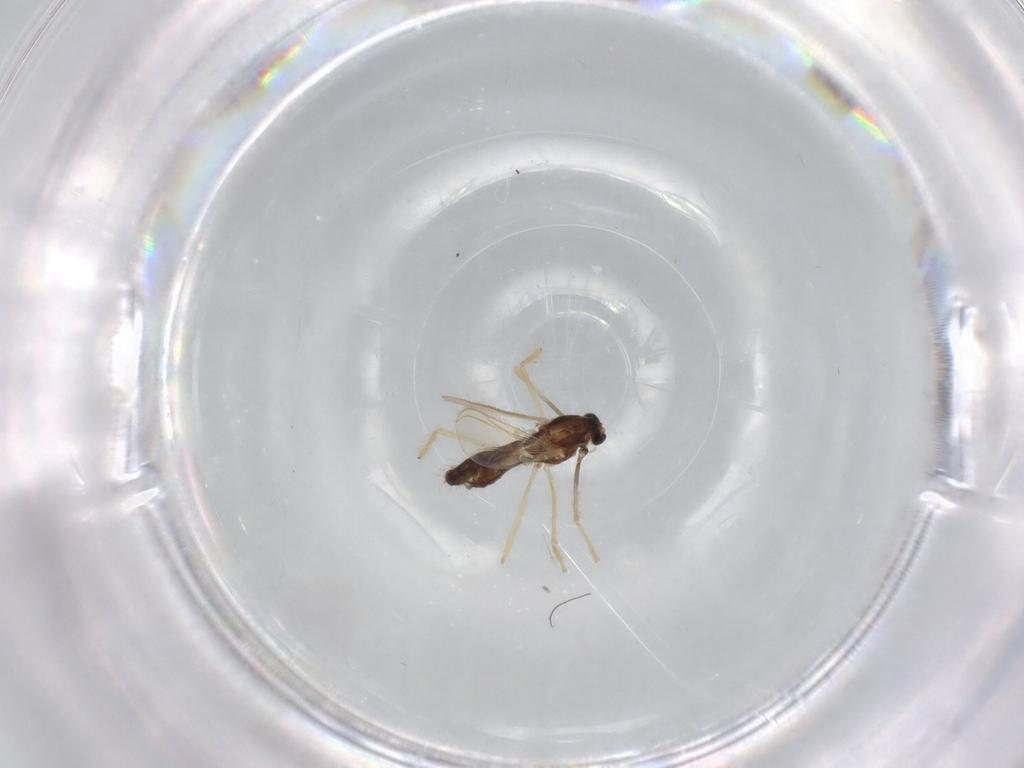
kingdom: Animalia
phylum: Arthropoda
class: Insecta
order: Diptera
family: Chironomidae
